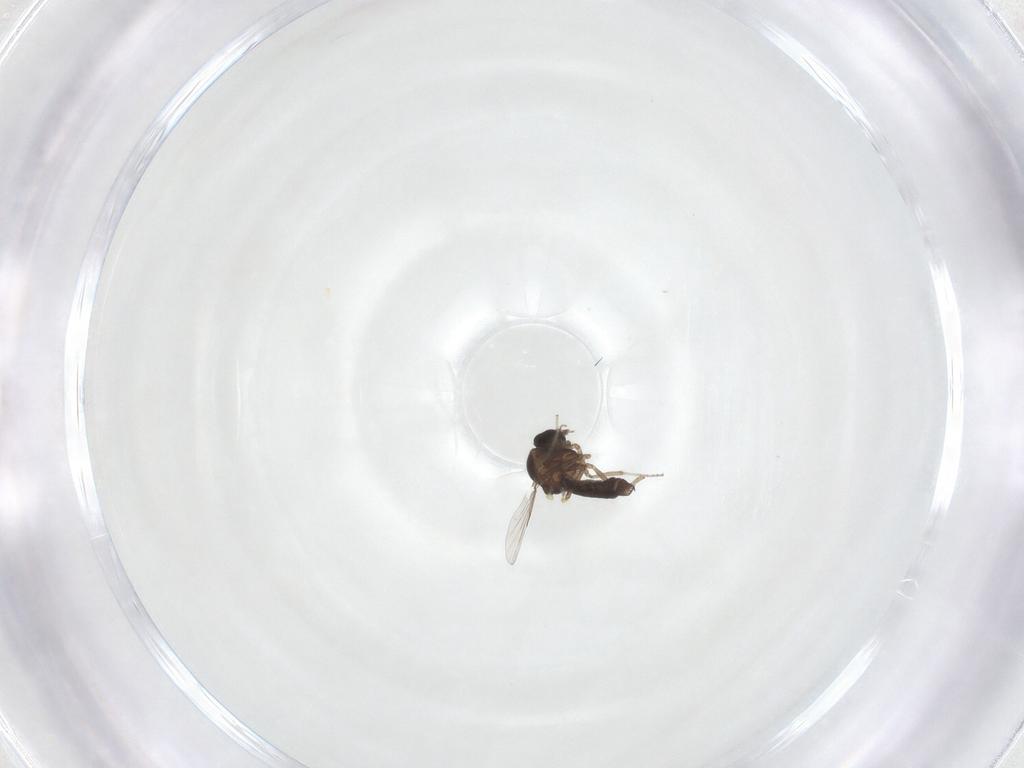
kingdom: Animalia
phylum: Arthropoda
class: Insecta
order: Diptera
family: Ceratopogonidae
